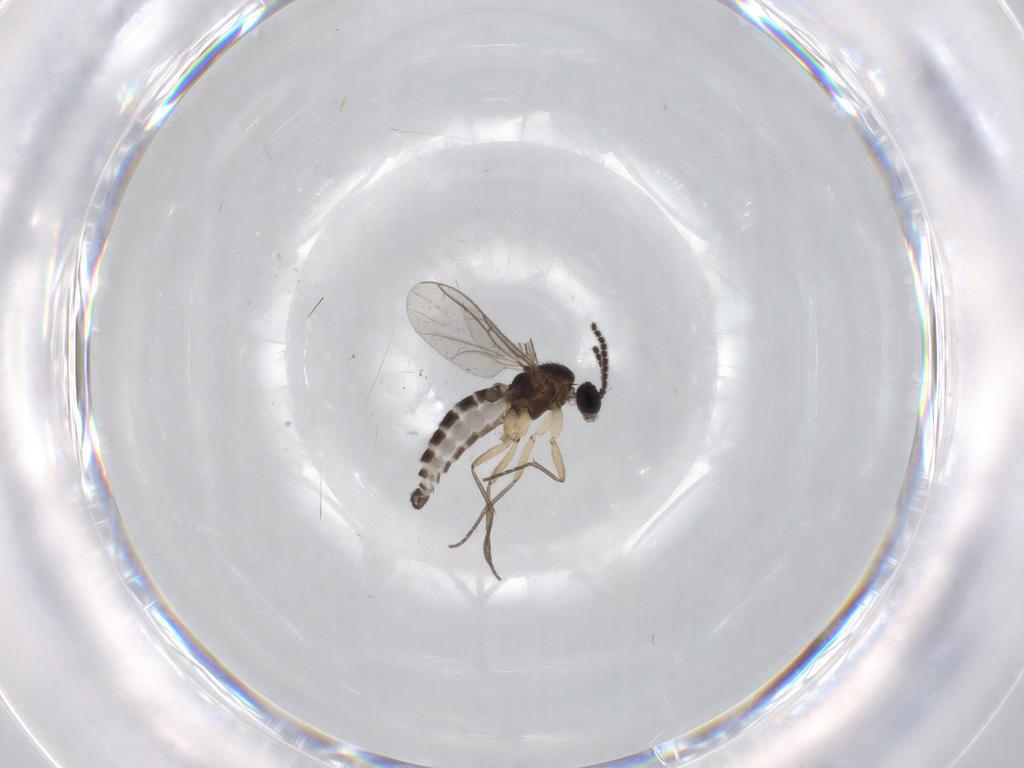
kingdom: Animalia
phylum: Arthropoda
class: Insecta
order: Diptera
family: Sciaridae
